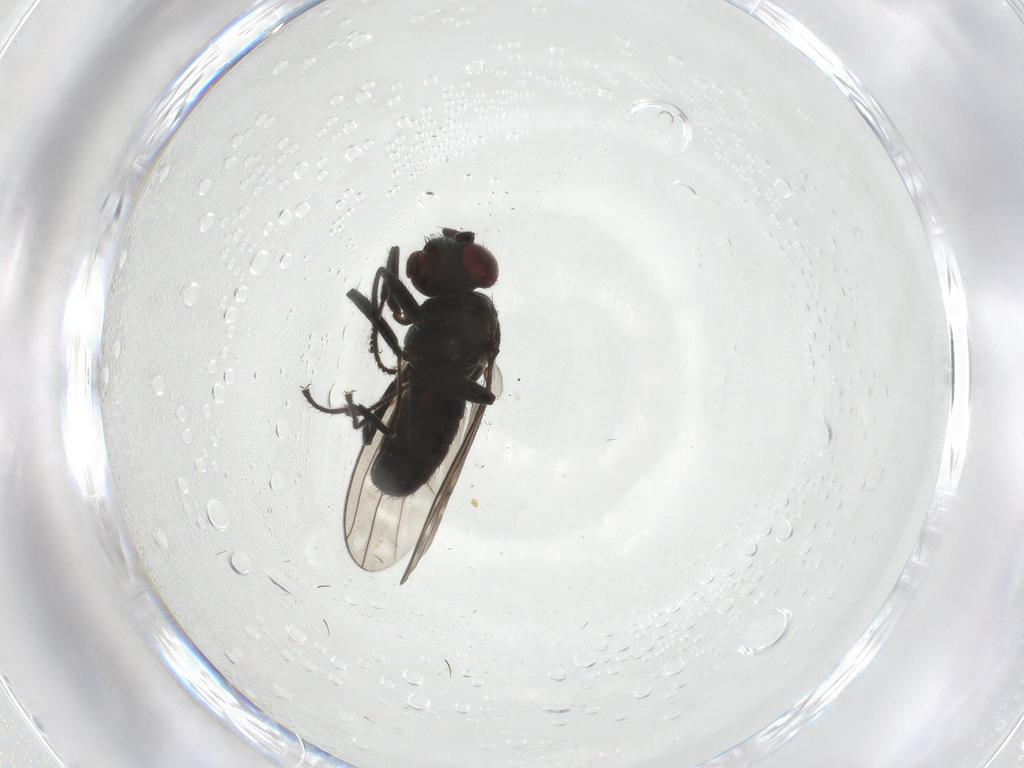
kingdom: Animalia
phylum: Arthropoda
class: Insecta
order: Diptera
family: Ephydridae
